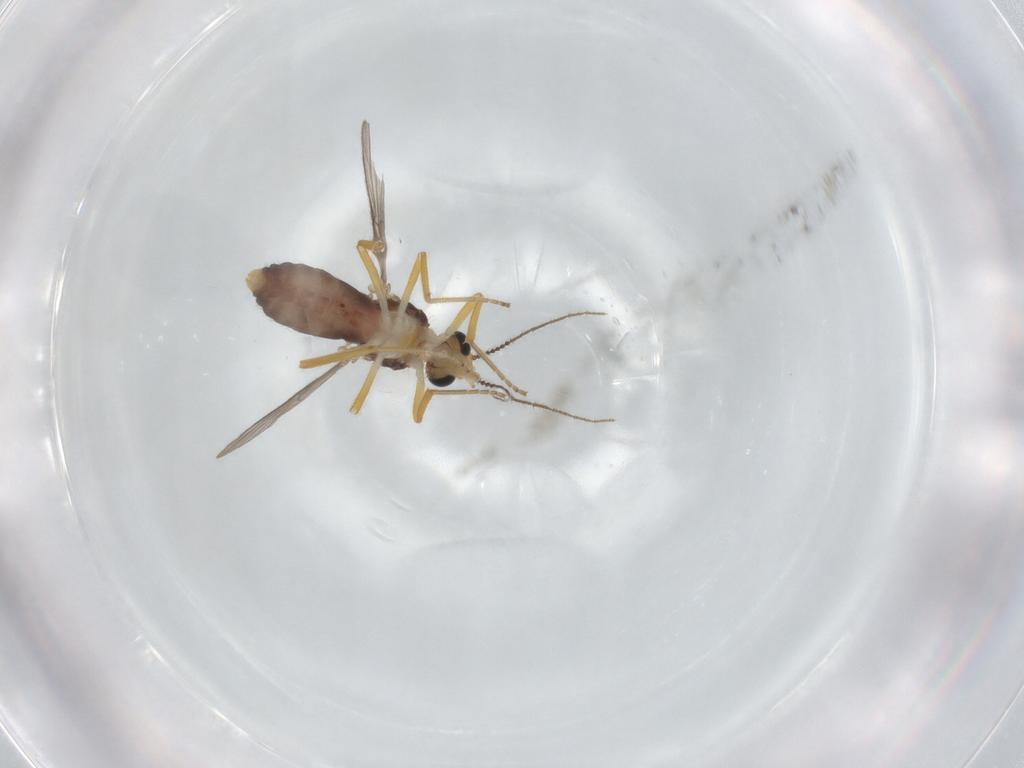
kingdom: Animalia
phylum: Arthropoda
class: Insecta
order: Diptera
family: Ceratopogonidae
